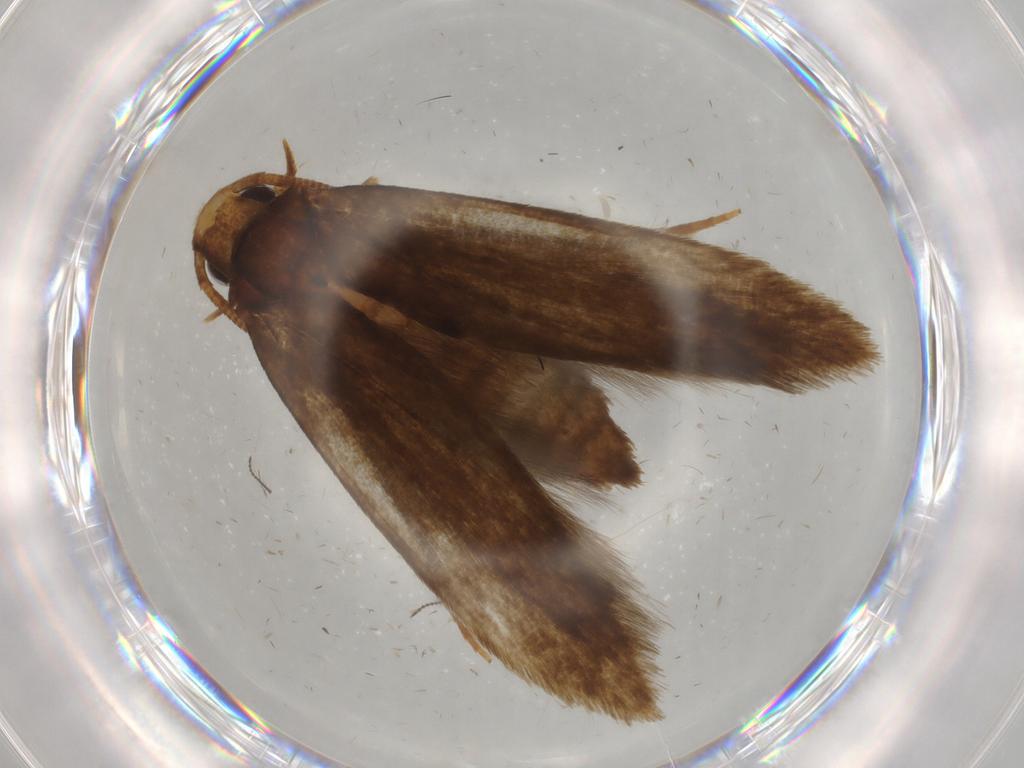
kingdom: Animalia
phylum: Arthropoda
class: Insecta
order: Lepidoptera
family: Tineidae
